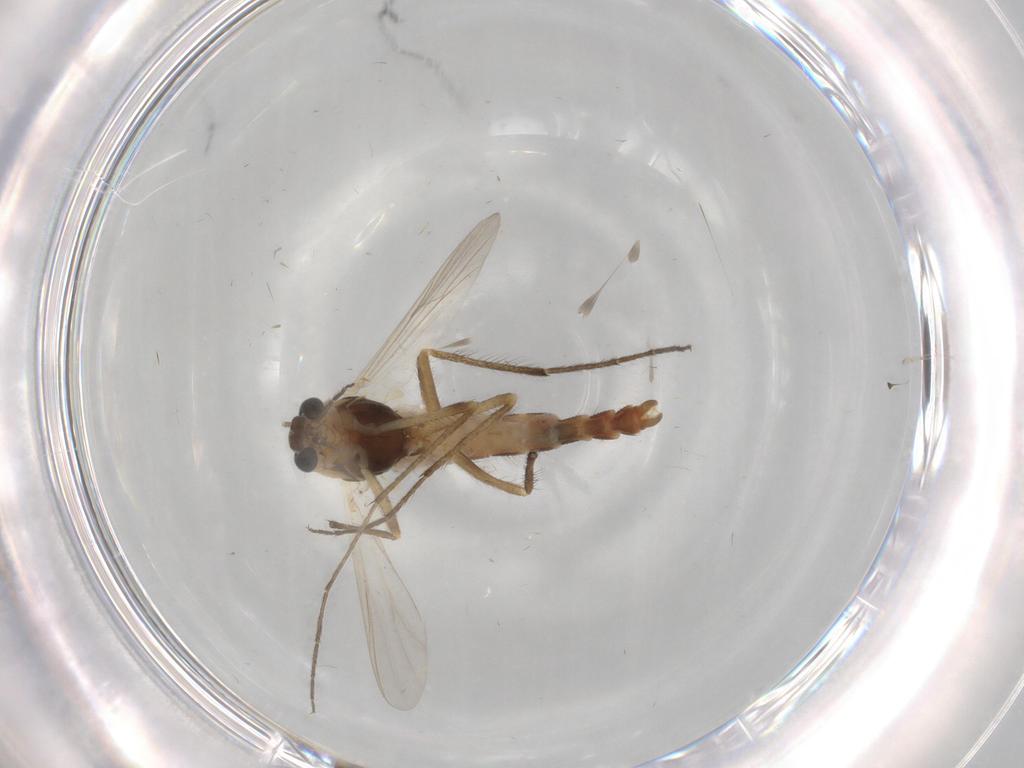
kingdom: Animalia
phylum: Arthropoda
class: Insecta
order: Diptera
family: Chironomidae
